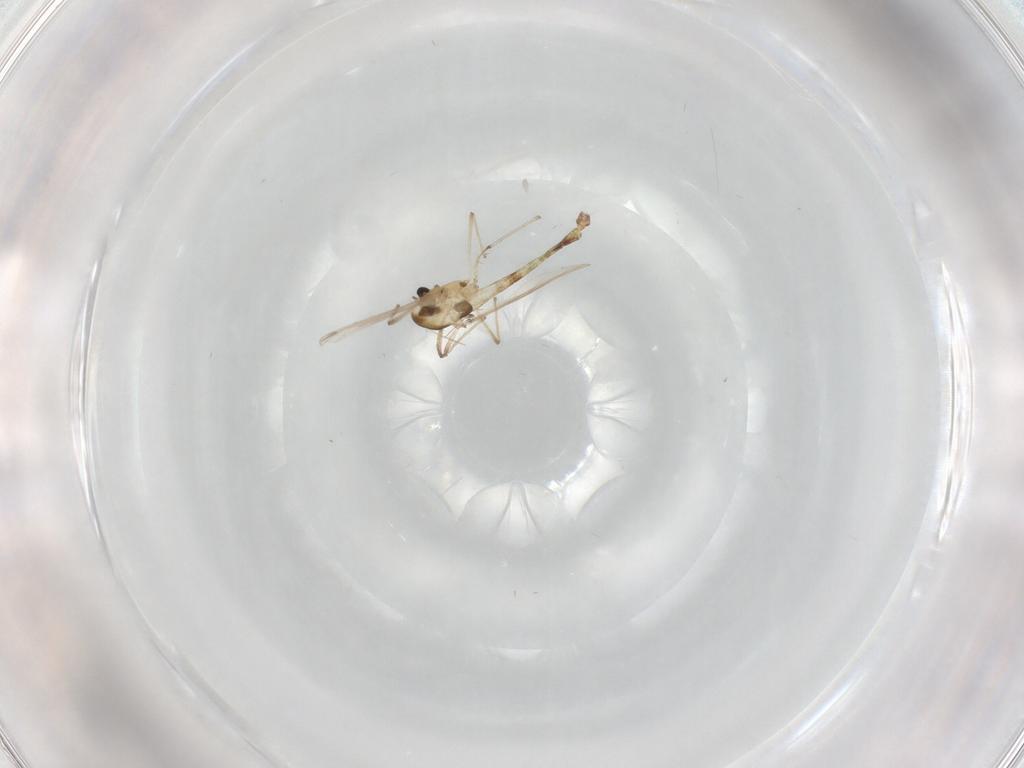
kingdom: Animalia
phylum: Arthropoda
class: Insecta
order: Diptera
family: Chironomidae
